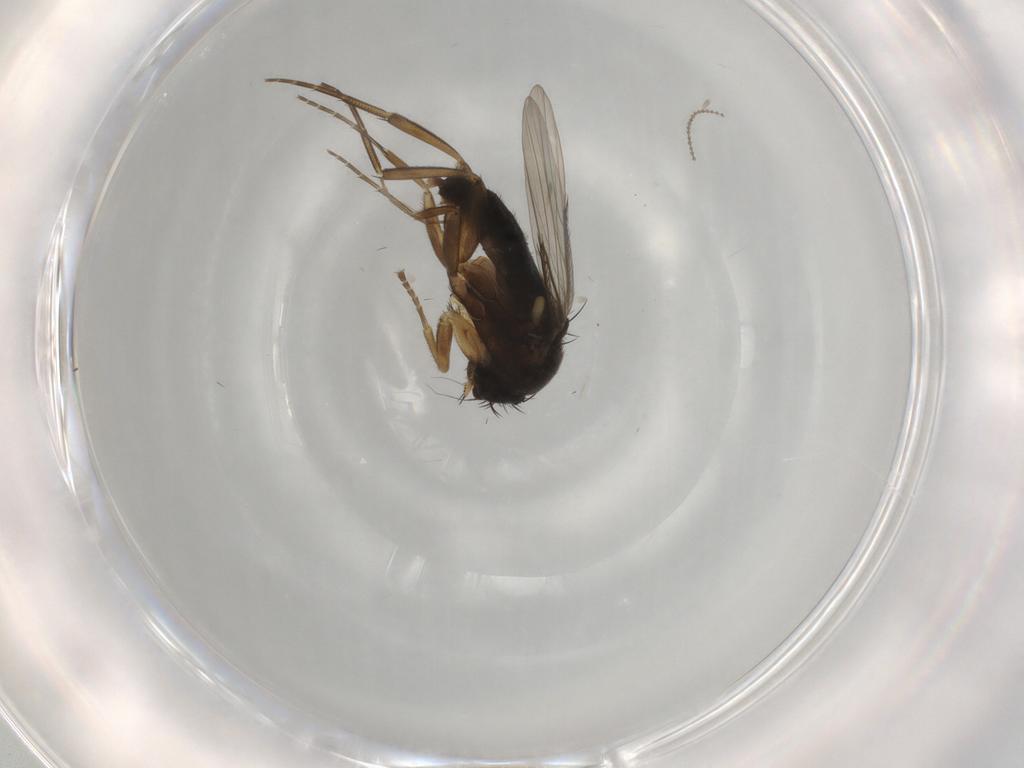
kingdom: Animalia
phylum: Arthropoda
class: Insecta
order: Diptera
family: Phoridae
